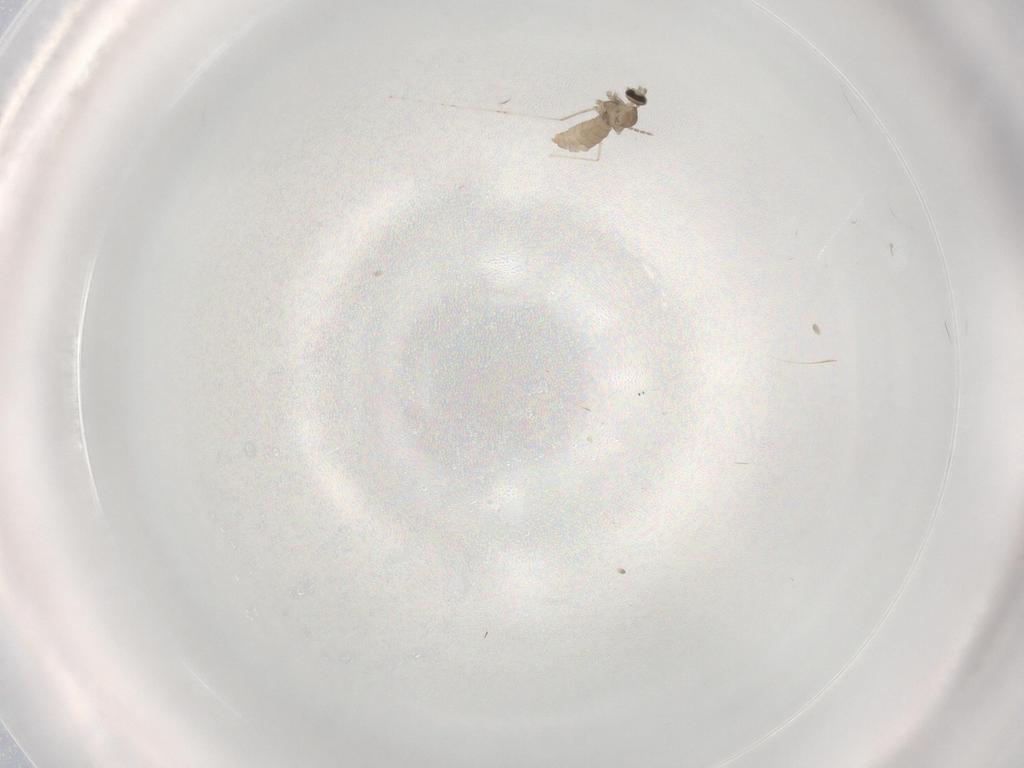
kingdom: Animalia
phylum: Arthropoda
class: Insecta
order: Diptera
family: Cecidomyiidae
